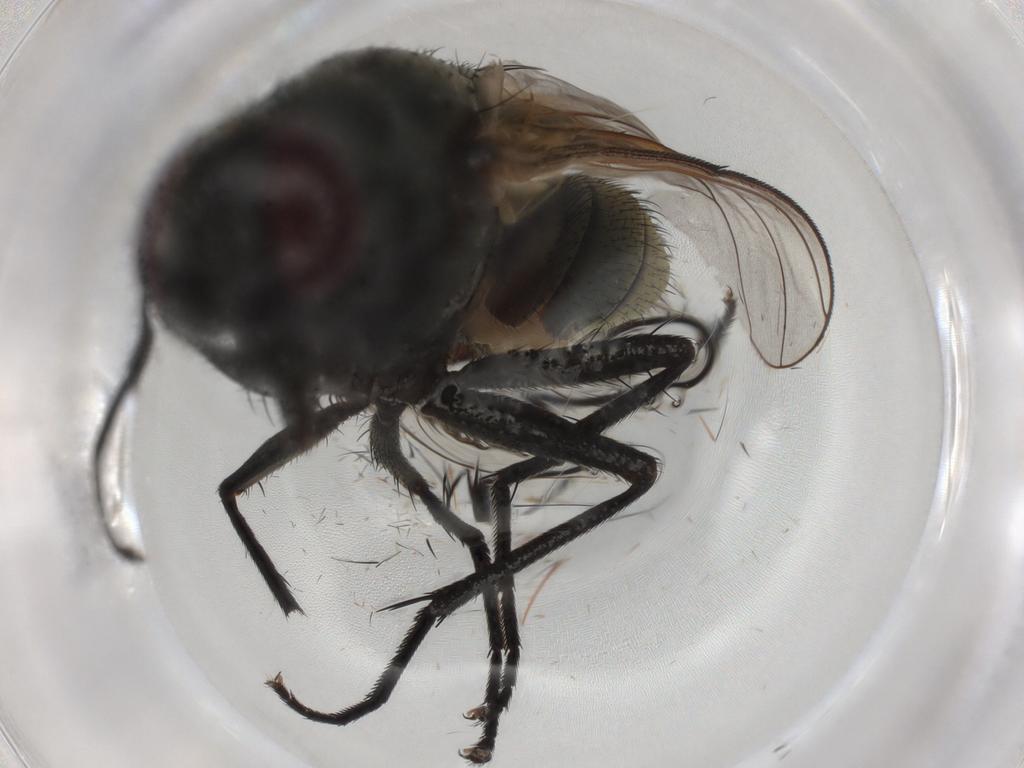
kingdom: Animalia
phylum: Arthropoda
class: Insecta
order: Diptera
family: Muscidae
